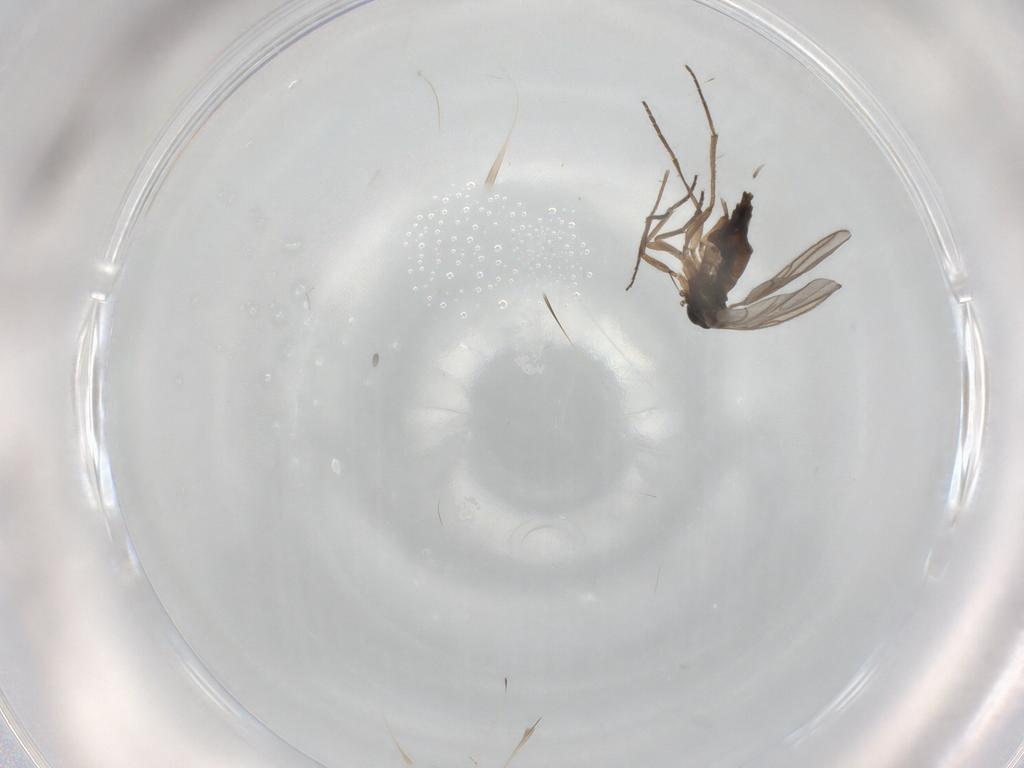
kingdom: Animalia
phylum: Arthropoda
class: Insecta
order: Diptera
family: Sciaridae
